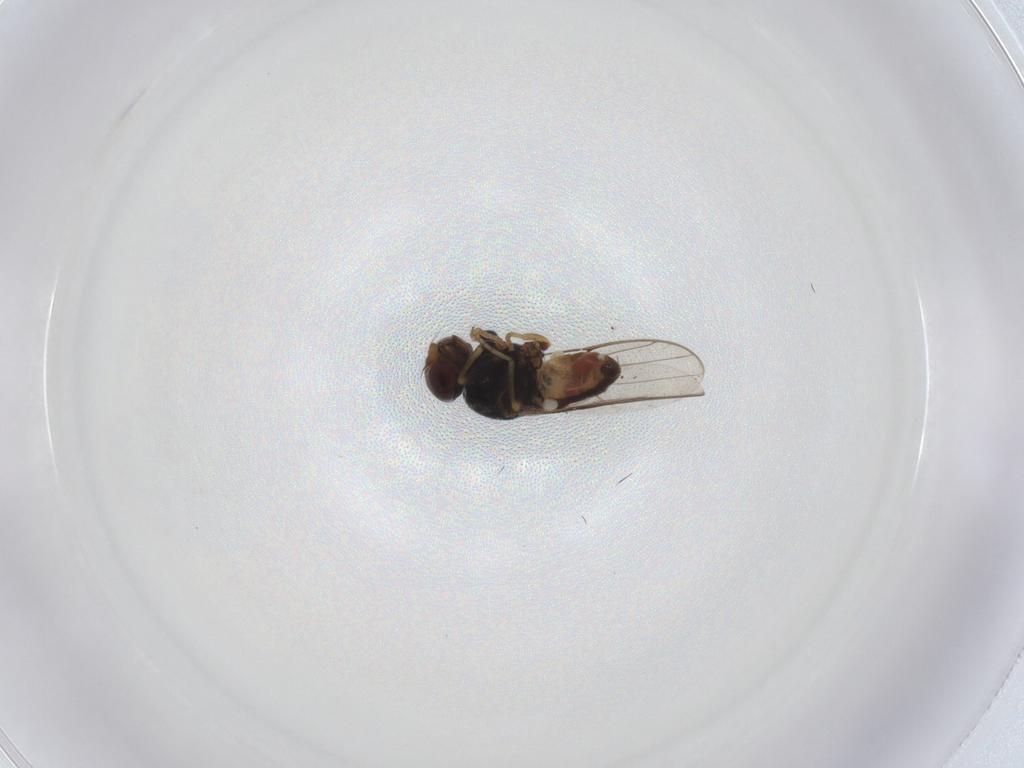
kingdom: Animalia
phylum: Arthropoda
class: Insecta
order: Diptera
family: Chloropidae
